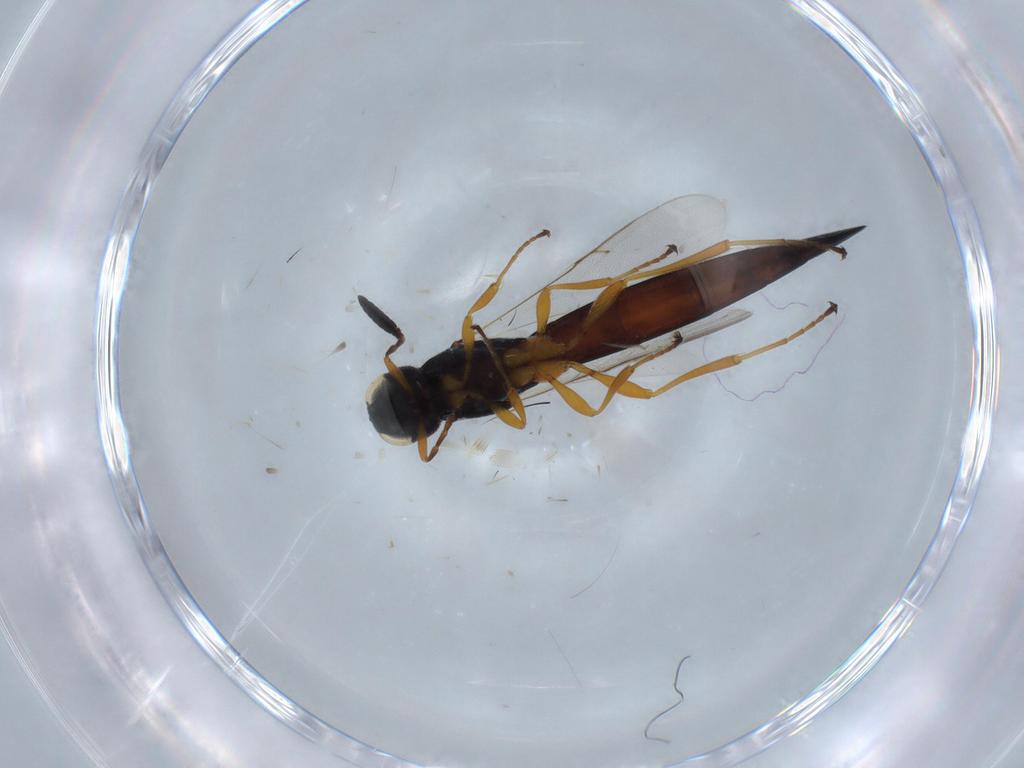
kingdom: Animalia
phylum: Arthropoda
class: Insecta
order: Hymenoptera
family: Scelionidae
